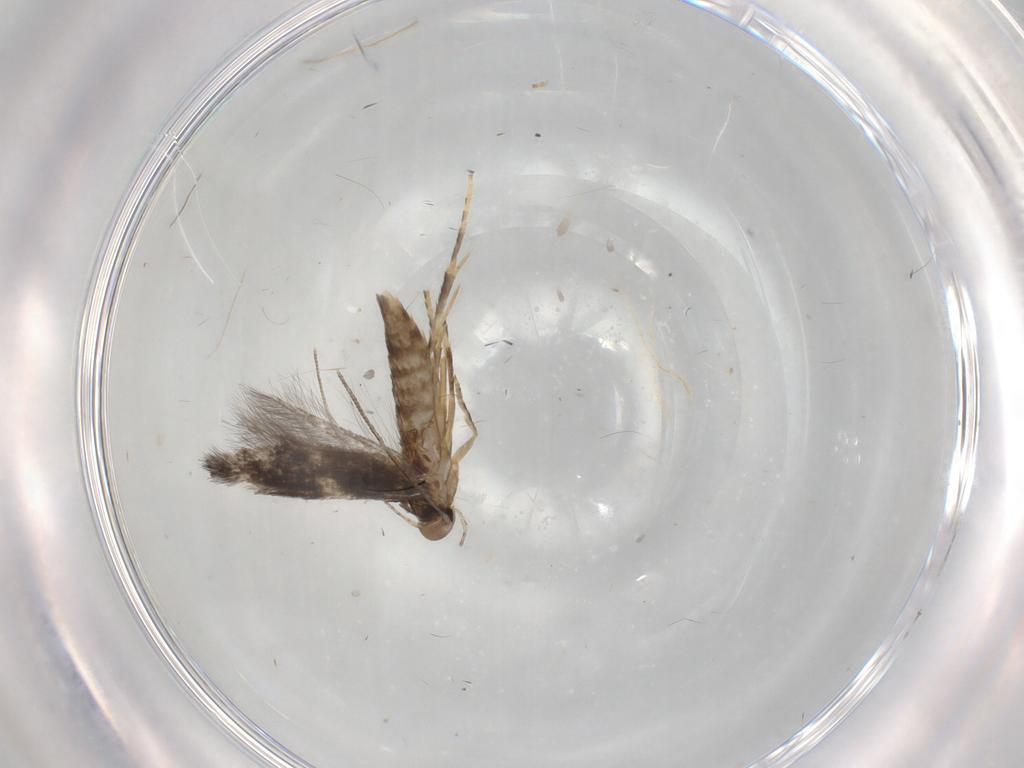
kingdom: Animalia
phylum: Arthropoda
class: Insecta
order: Lepidoptera
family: Elachistidae
